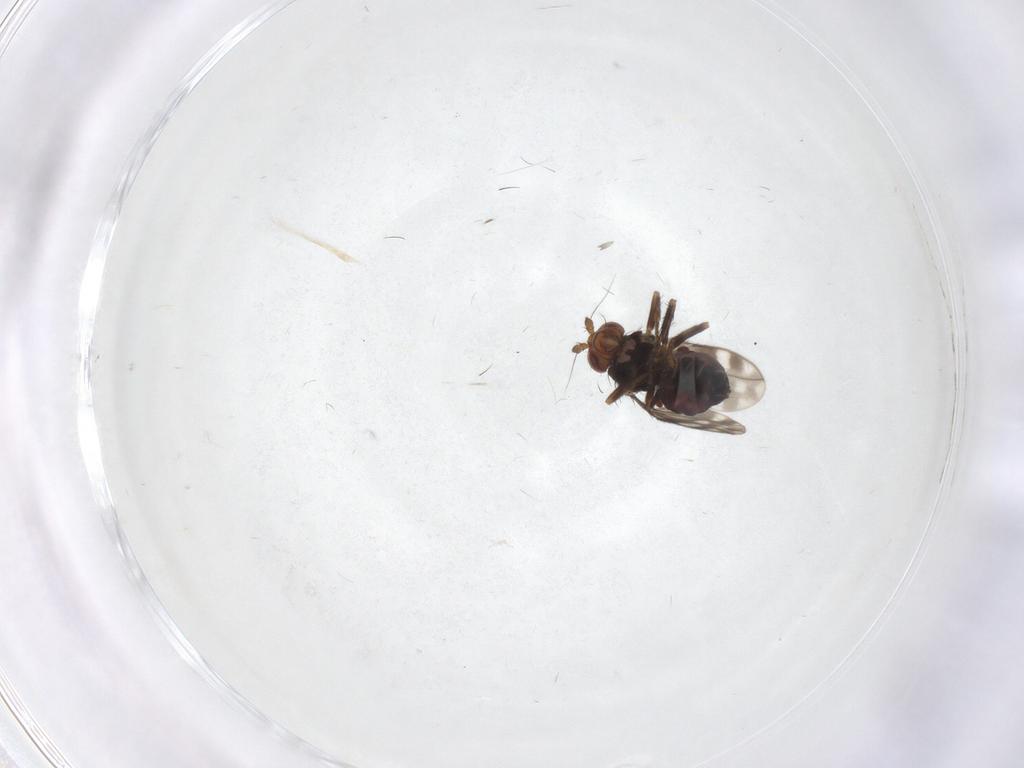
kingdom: Animalia
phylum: Arthropoda
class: Insecta
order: Diptera
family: Sphaeroceridae
